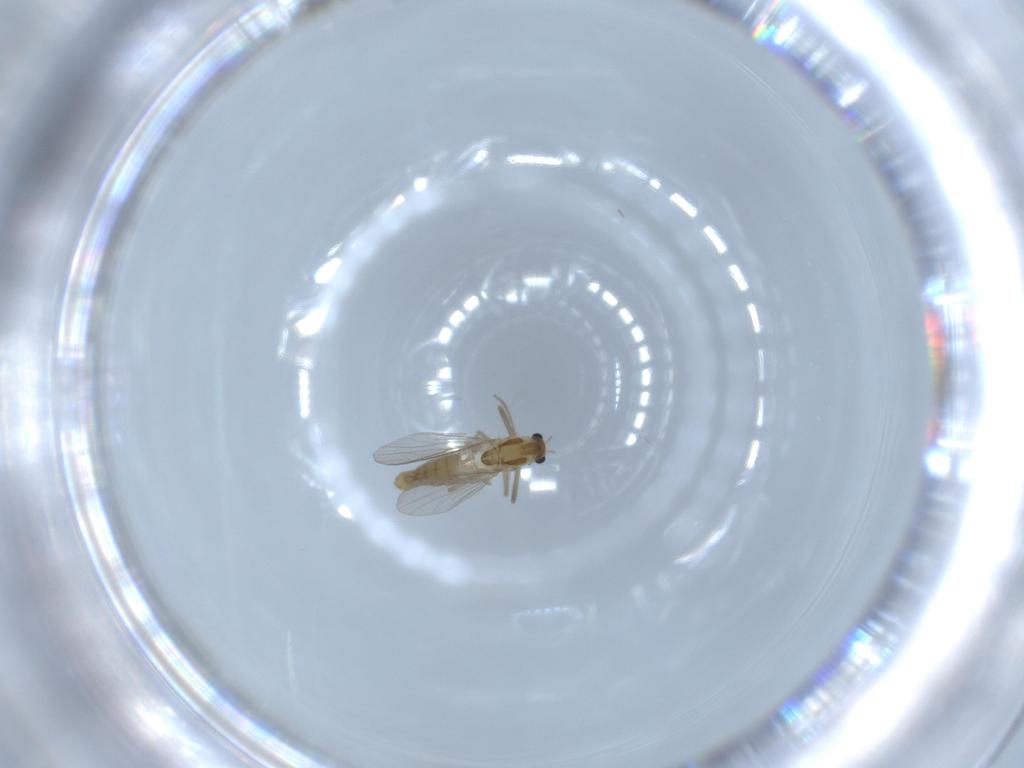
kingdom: Animalia
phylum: Arthropoda
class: Insecta
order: Diptera
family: Chironomidae
